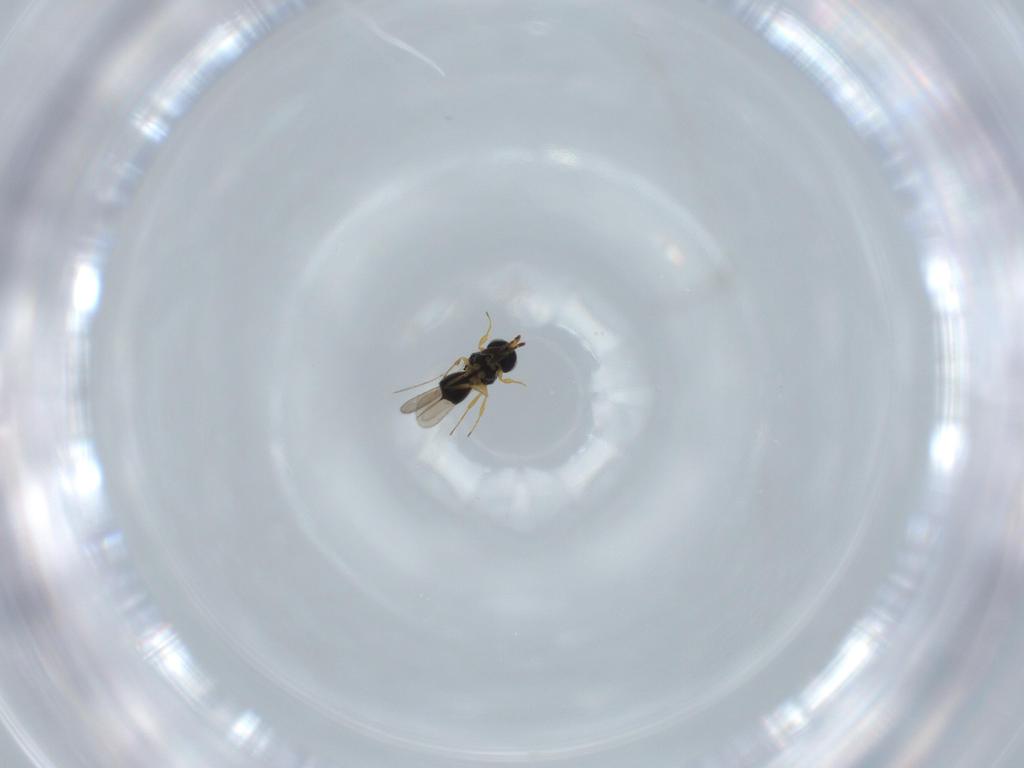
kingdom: Animalia
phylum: Arthropoda
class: Insecta
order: Hymenoptera
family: Scelionidae
